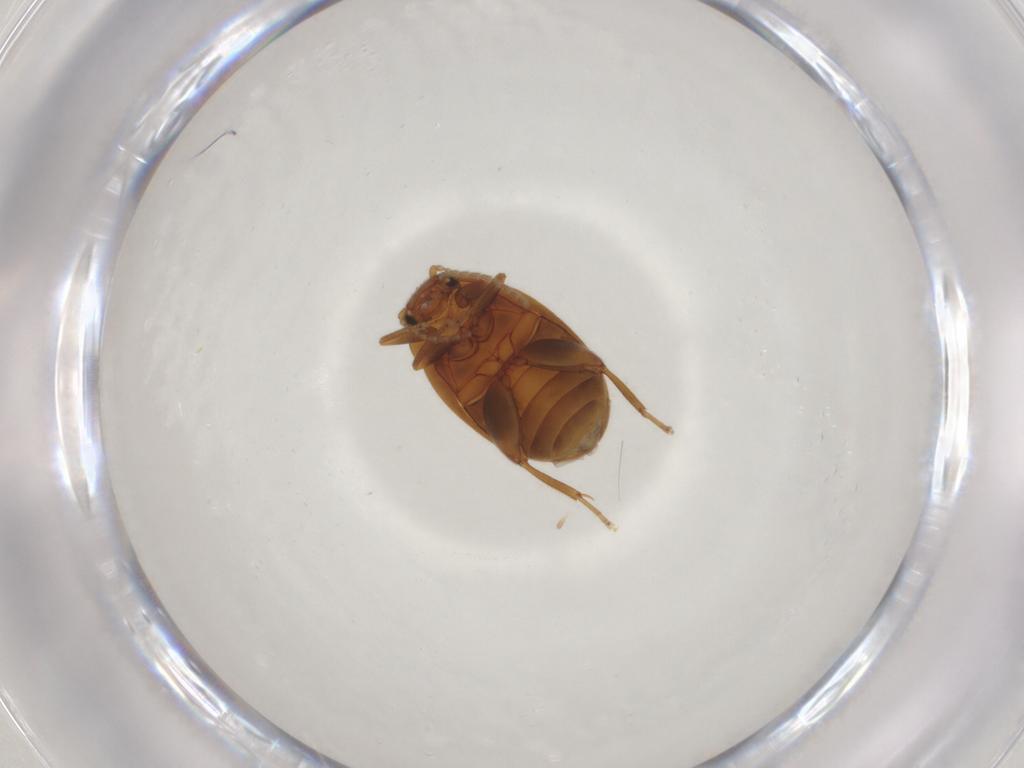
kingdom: Animalia
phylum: Arthropoda
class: Insecta
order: Coleoptera
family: Scirtidae
